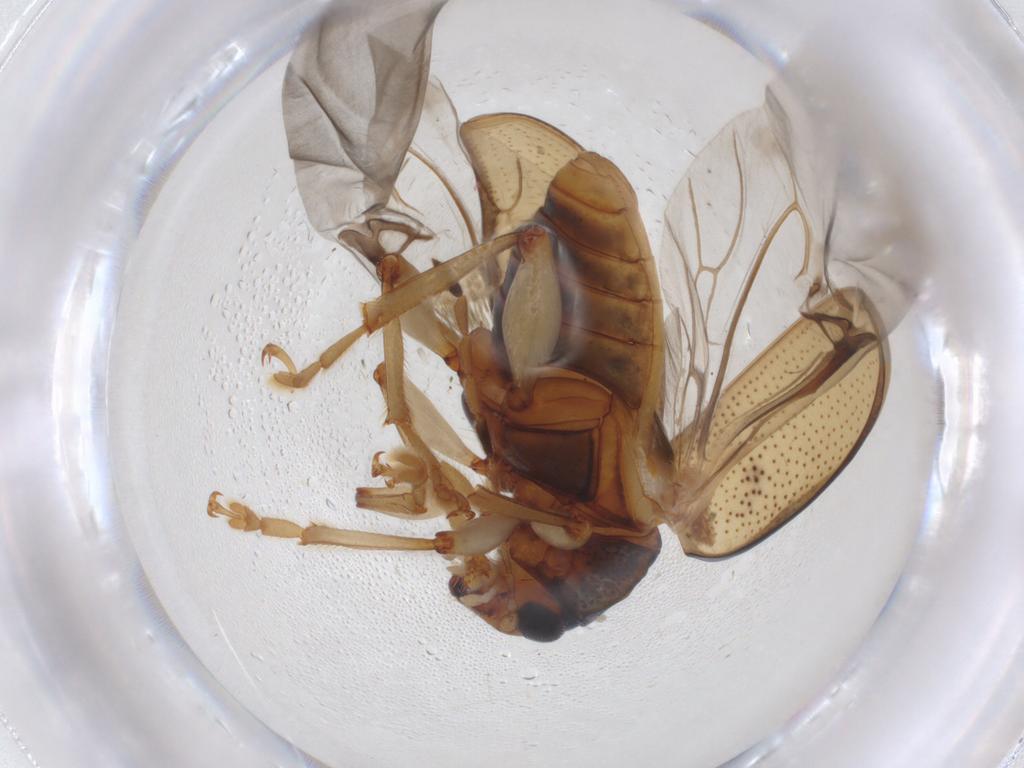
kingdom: Animalia
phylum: Arthropoda
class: Insecta
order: Coleoptera
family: Chrysomelidae
